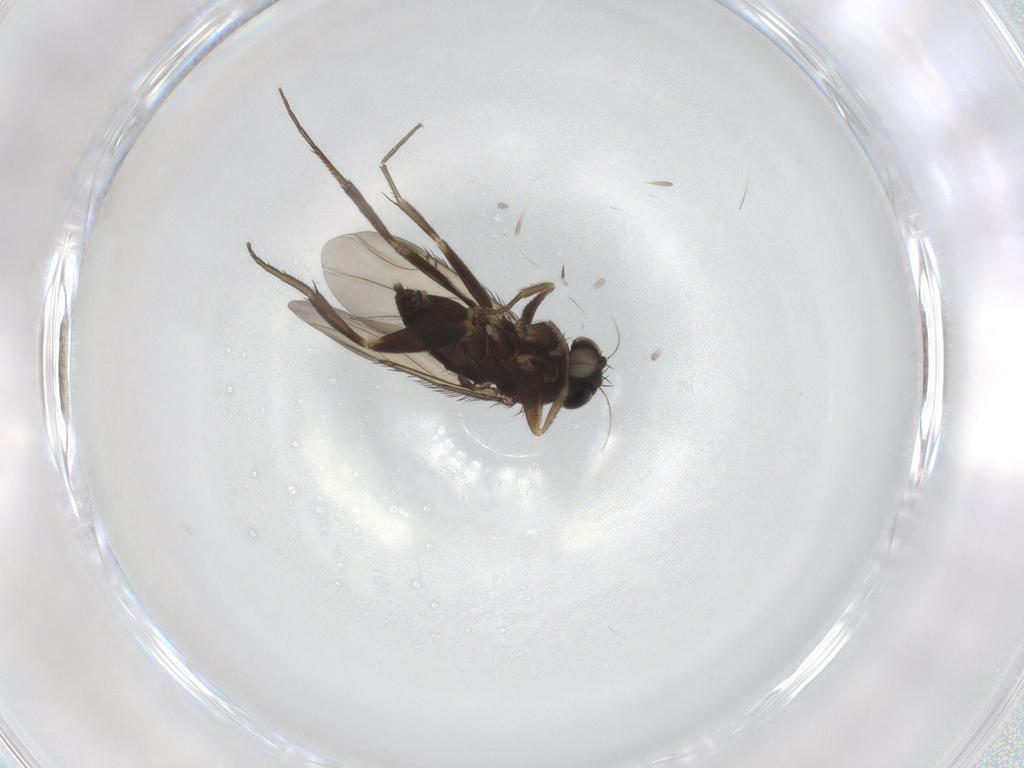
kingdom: Animalia
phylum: Arthropoda
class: Insecta
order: Diptera
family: Phoridae
